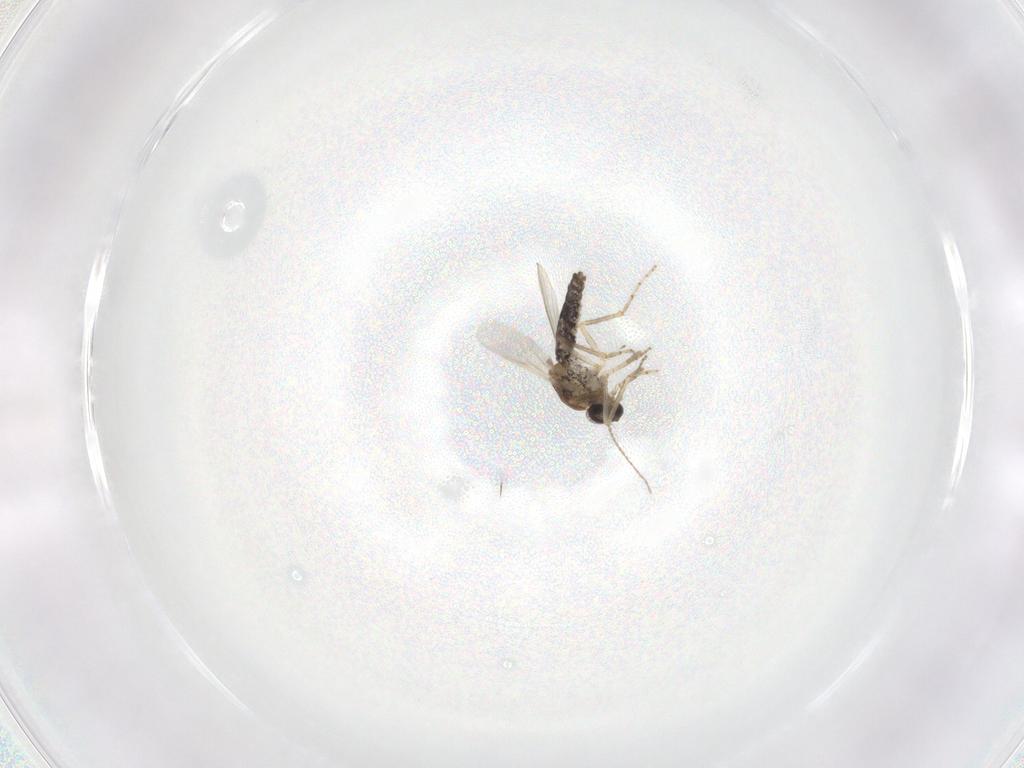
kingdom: Animalia
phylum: Arthropoda
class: Insecta
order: Diptera
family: Ceratopogonidae
